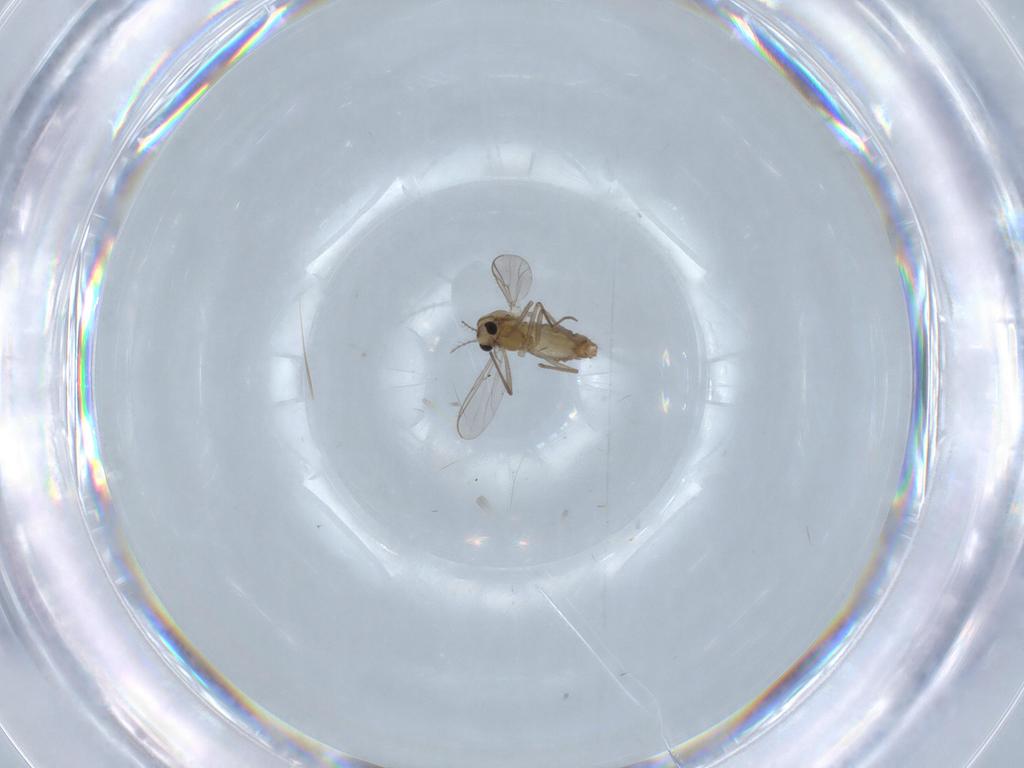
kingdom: Animalia
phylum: Arthropoda
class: Insecta
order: Diptera
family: Chironomidae
